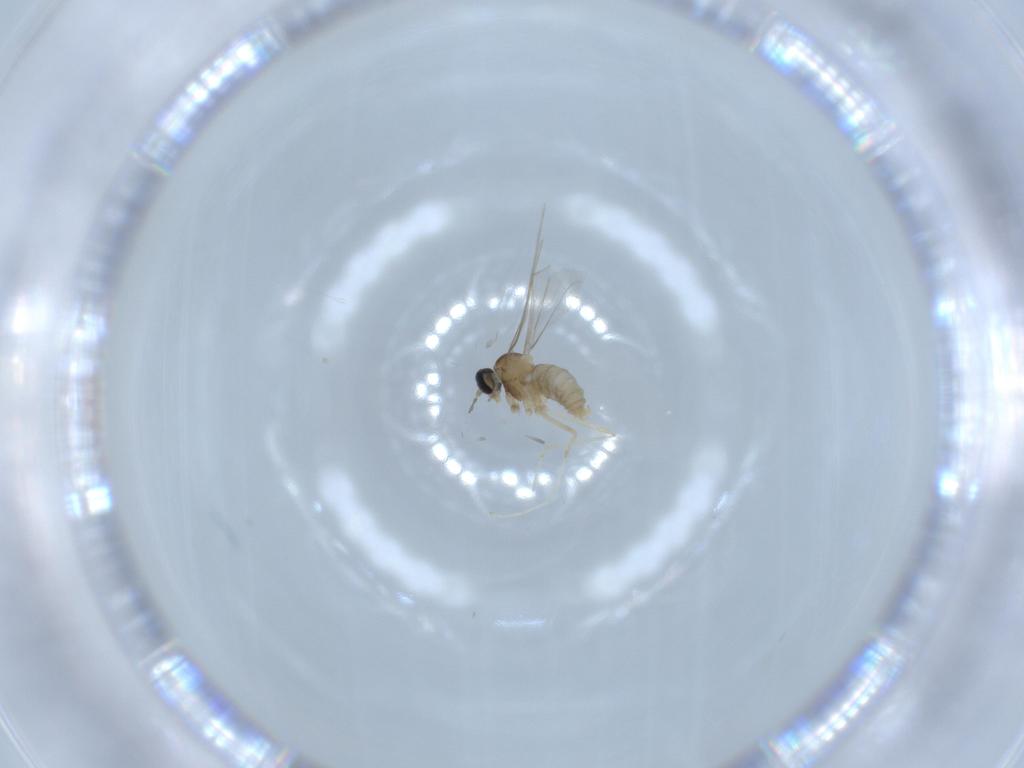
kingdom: Animalia
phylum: Arthropoda
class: Insecta
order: Diptera
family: Cecidomyiidae
